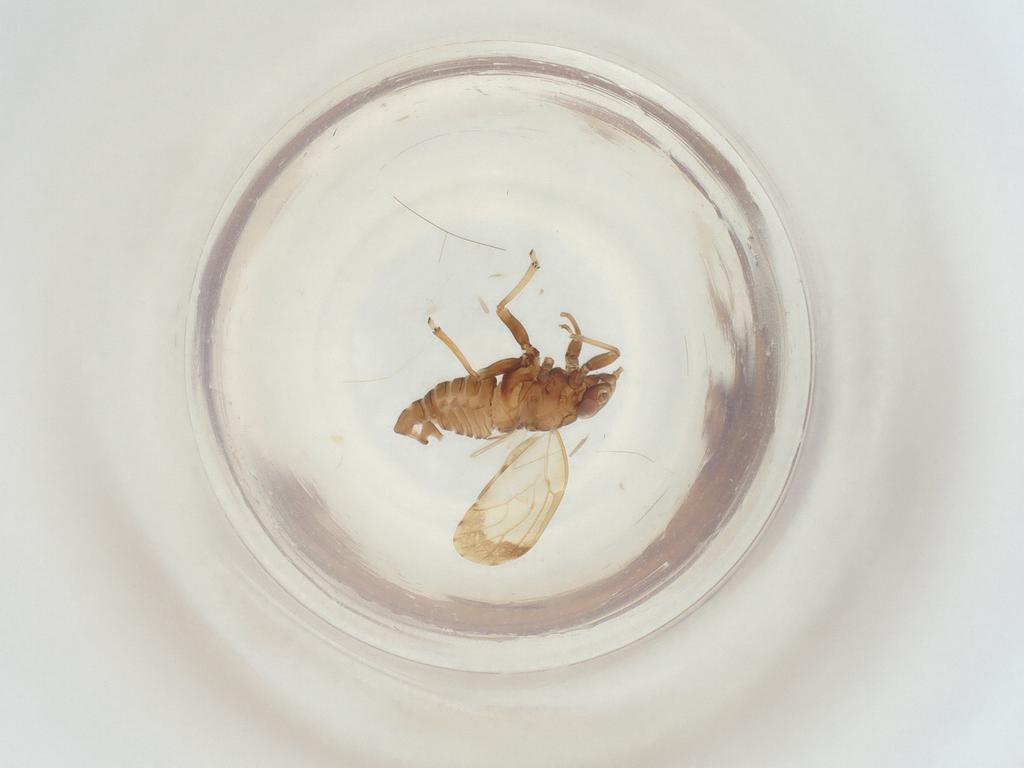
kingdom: Animalia
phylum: Arthropoda
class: Insecta
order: Hemiptera
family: Psyllidae
